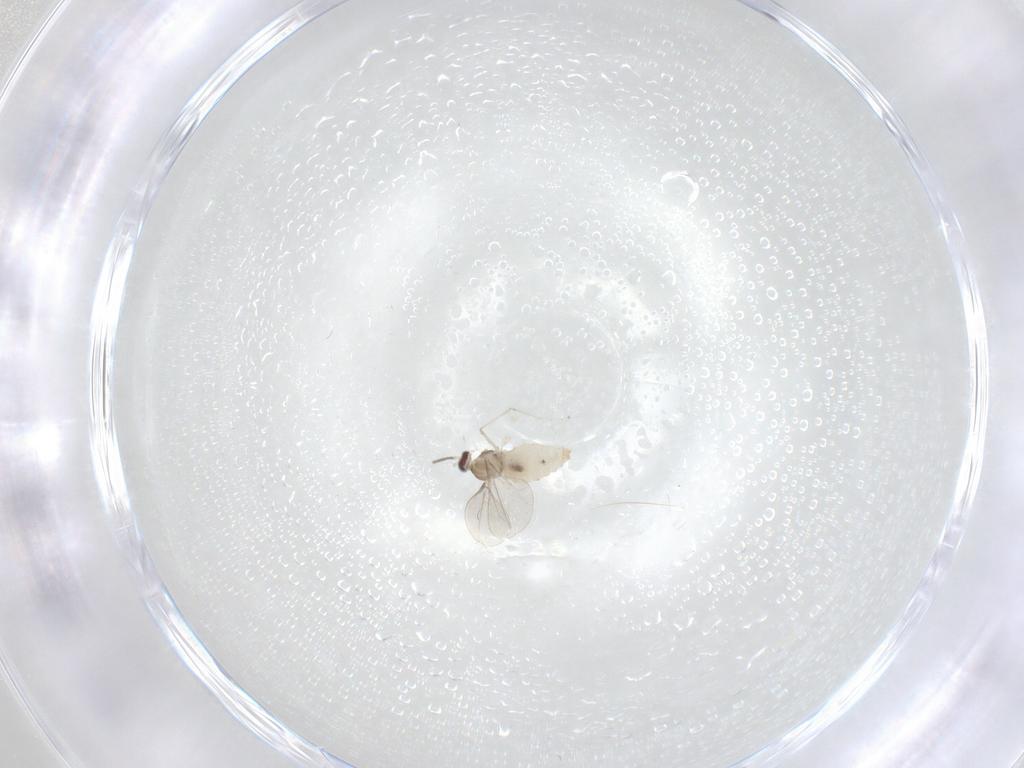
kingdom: Animalia
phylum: Arthropoda
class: Insecta
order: Diptera
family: Cecidomyiidae
